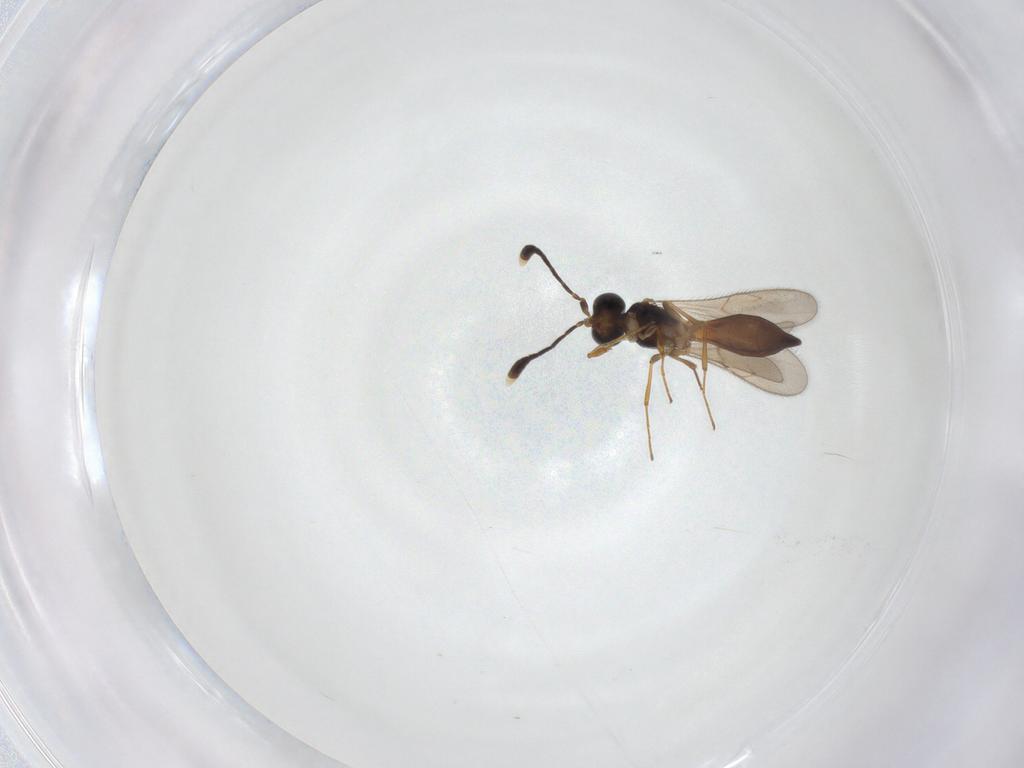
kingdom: Animalia
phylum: Arthropoda
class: Insecta
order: Hymenoptera
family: Scelionidae
